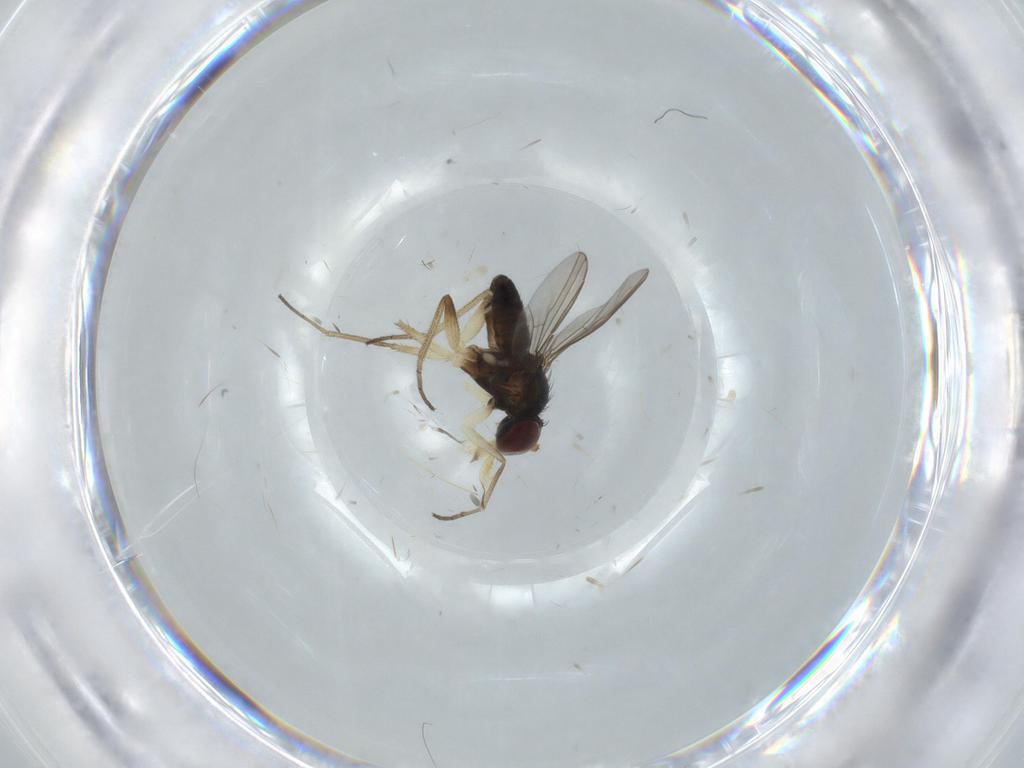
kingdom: Animalia
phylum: Arthropoda
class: Insecta
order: Diptera
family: Dolichopodidae
